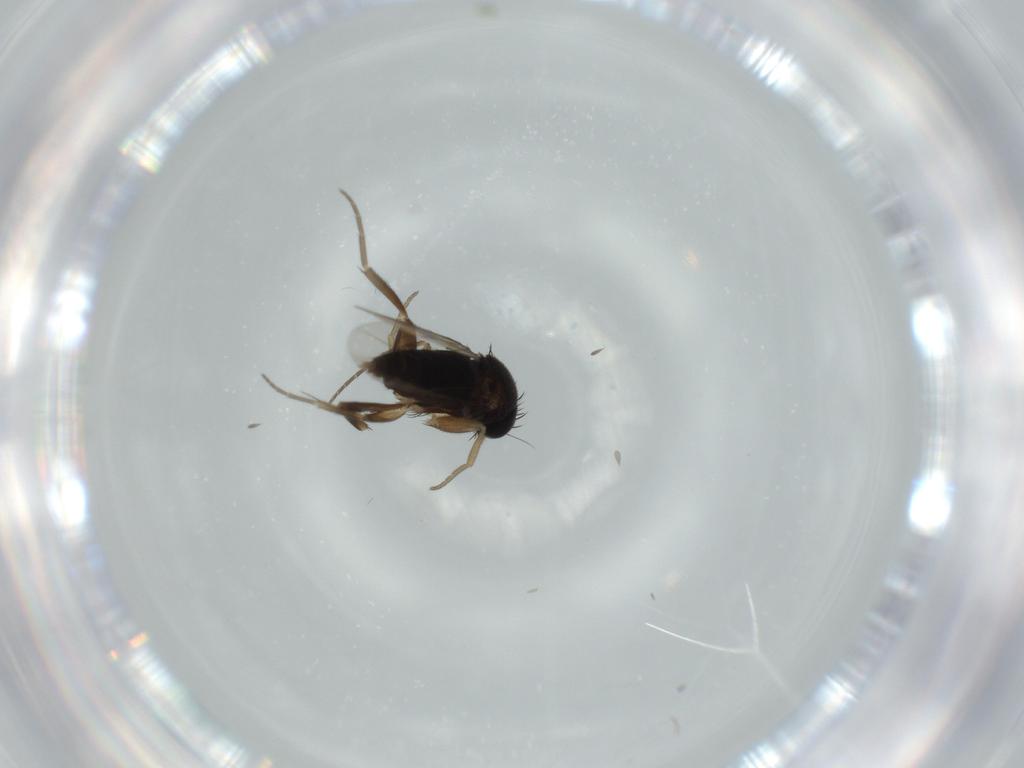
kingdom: Animalia
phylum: Arthropoda
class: Insecta
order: Diptera
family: Phoridae
